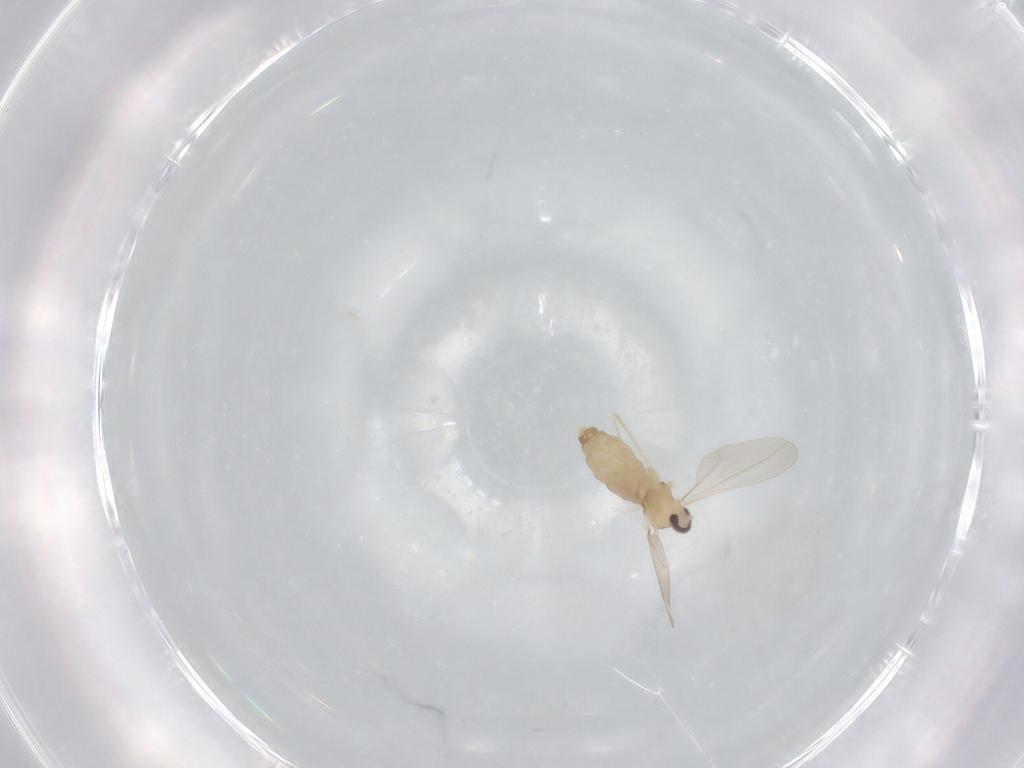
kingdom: Animalia
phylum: Arthropoda
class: Insecta
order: Diptera
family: Cecidomyiidae
